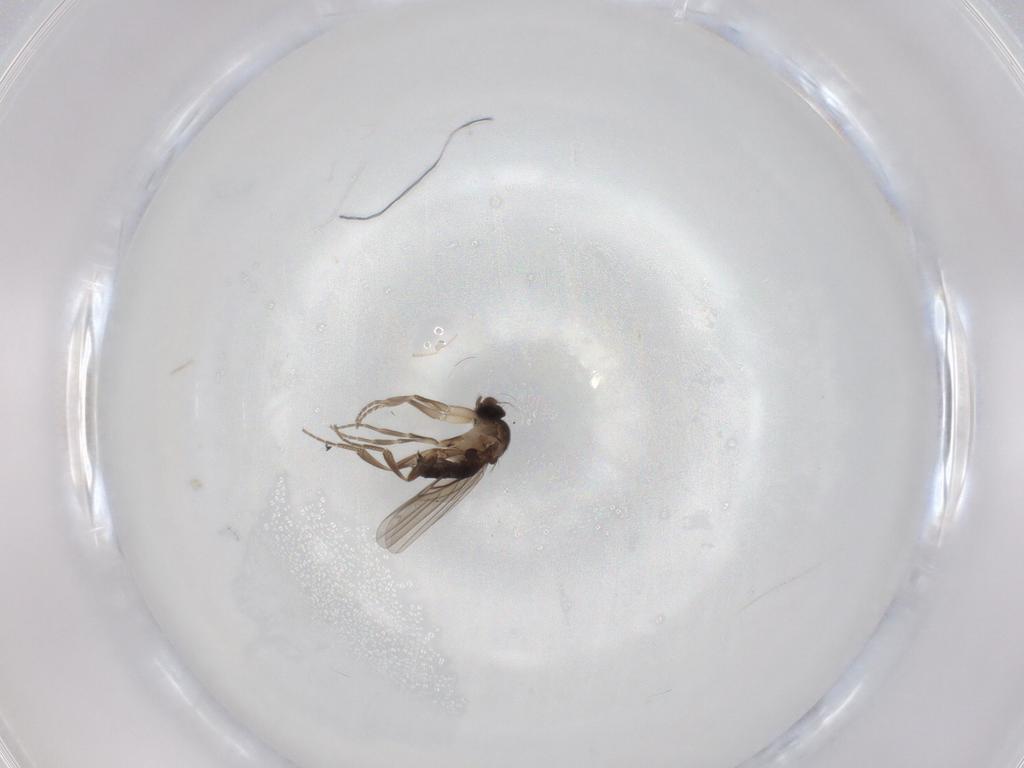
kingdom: Animalia
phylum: Arthropoda
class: Insecta
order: Diptera
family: Phoridae
